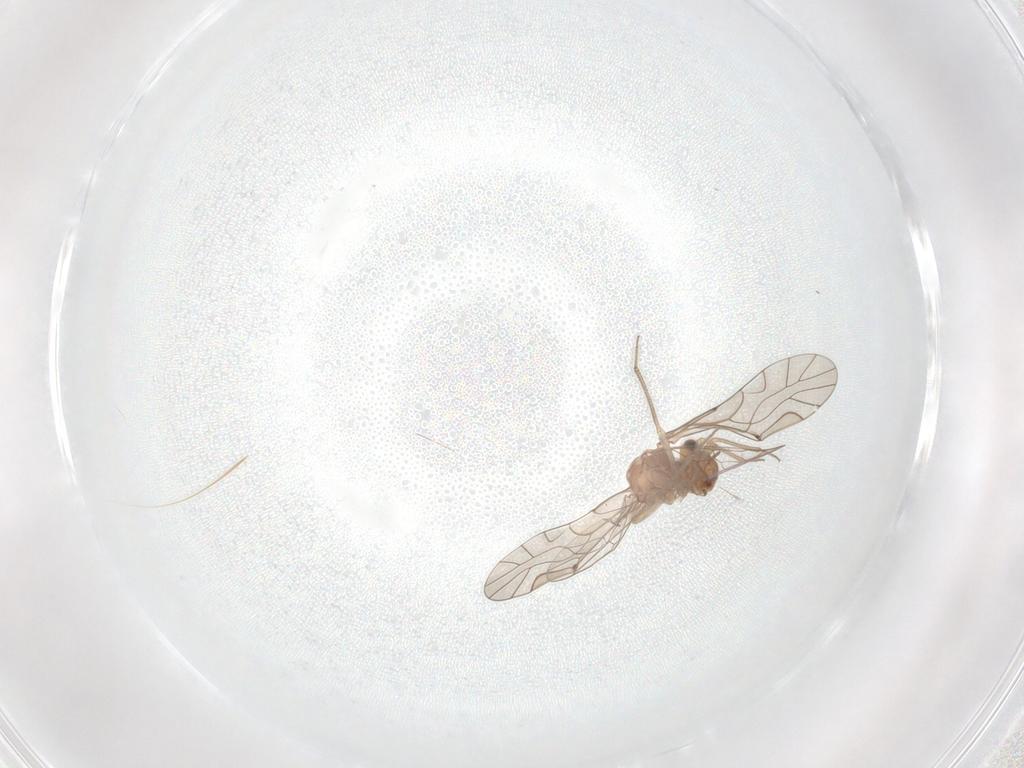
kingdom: Animalia
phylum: Arthropoda
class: Insecta
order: Psocodea
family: Lachesillidae
